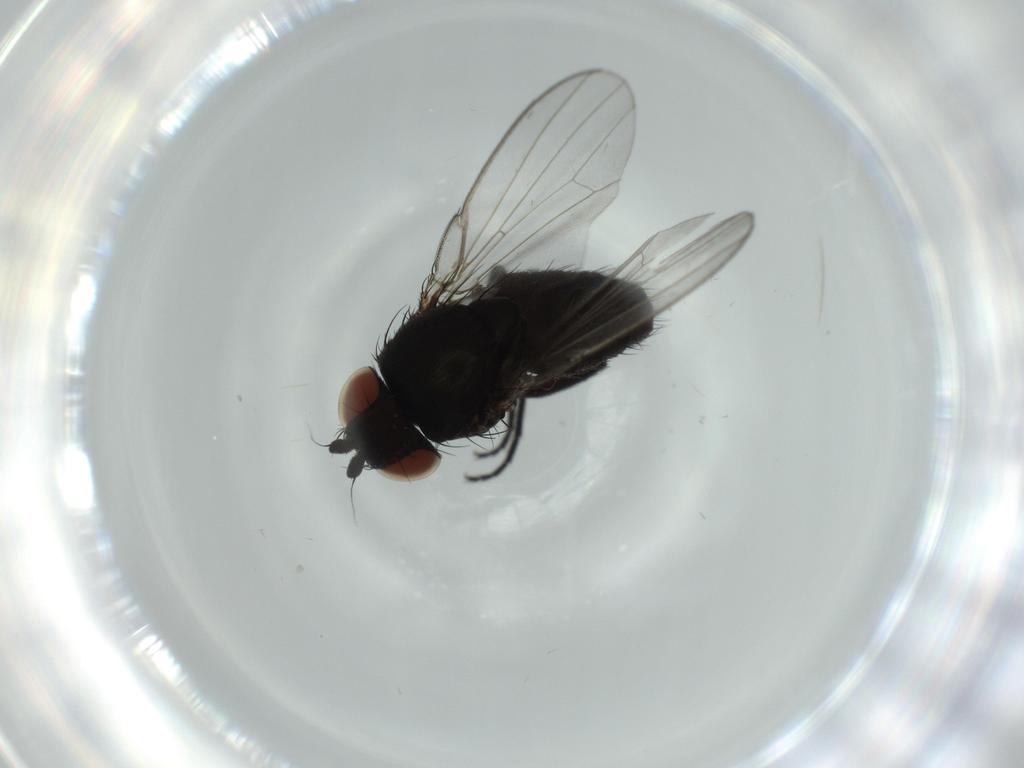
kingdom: Animalia
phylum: Arthropoda
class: Insecta
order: Diptera
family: Milichiidae
